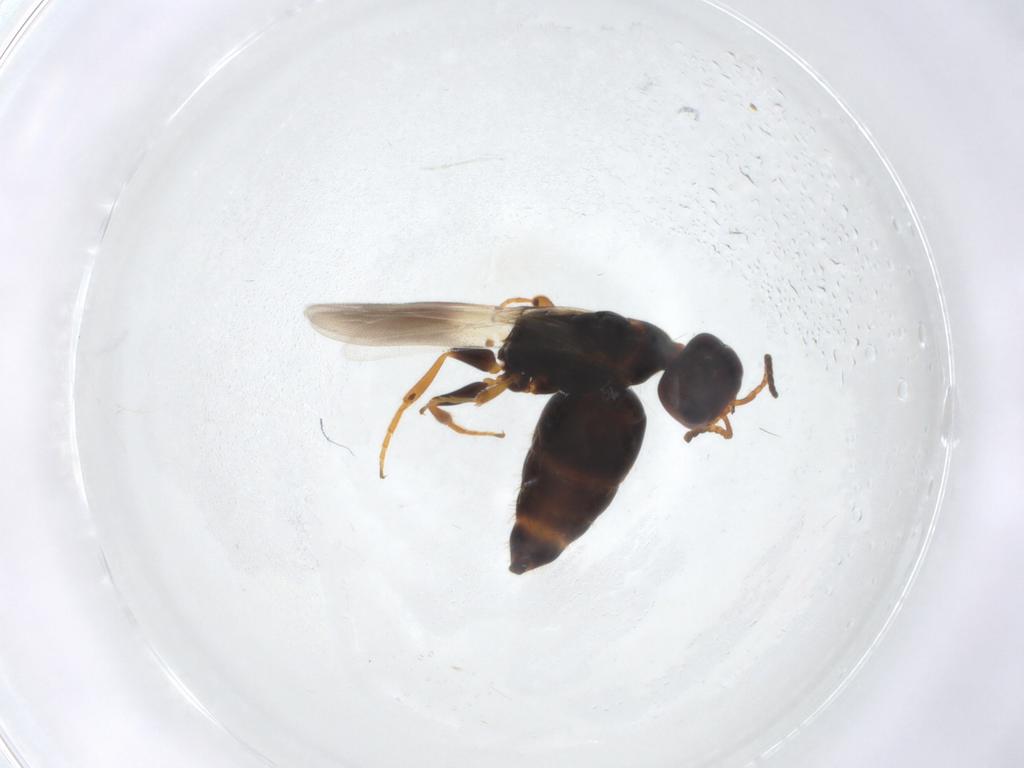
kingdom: Animalia
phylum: Arthropoda
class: Insecta
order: Hymenoptera
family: Bethylidae
